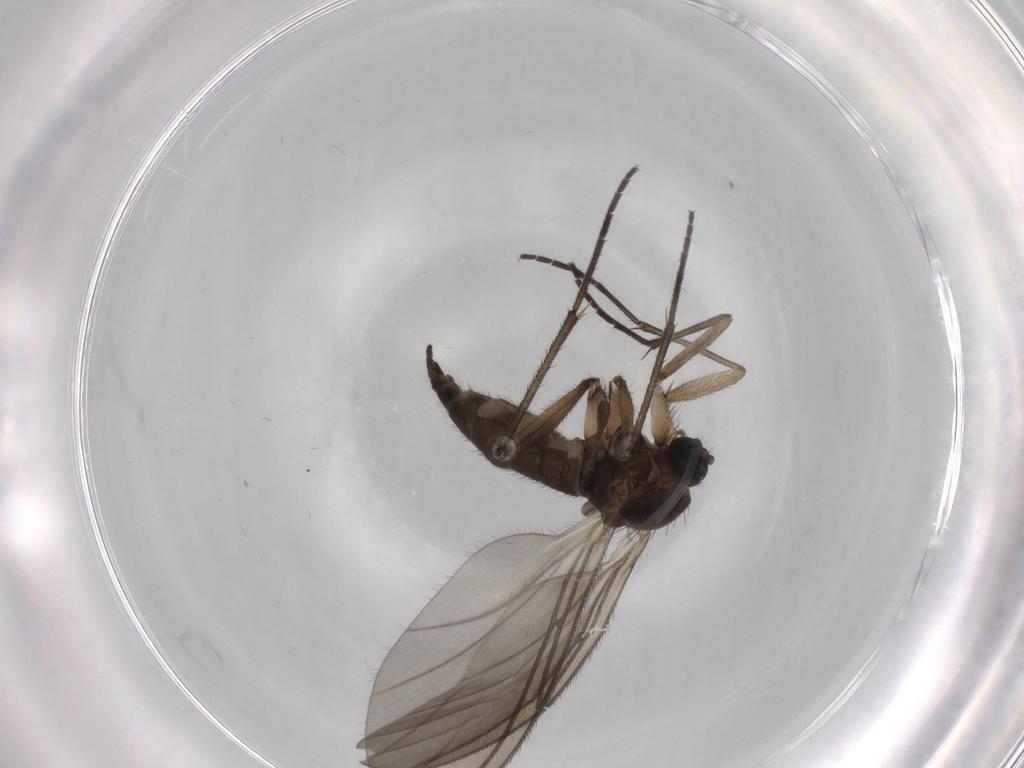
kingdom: Animalia
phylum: Arthropoda
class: Insecta
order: Diptera
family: Sciaridae
